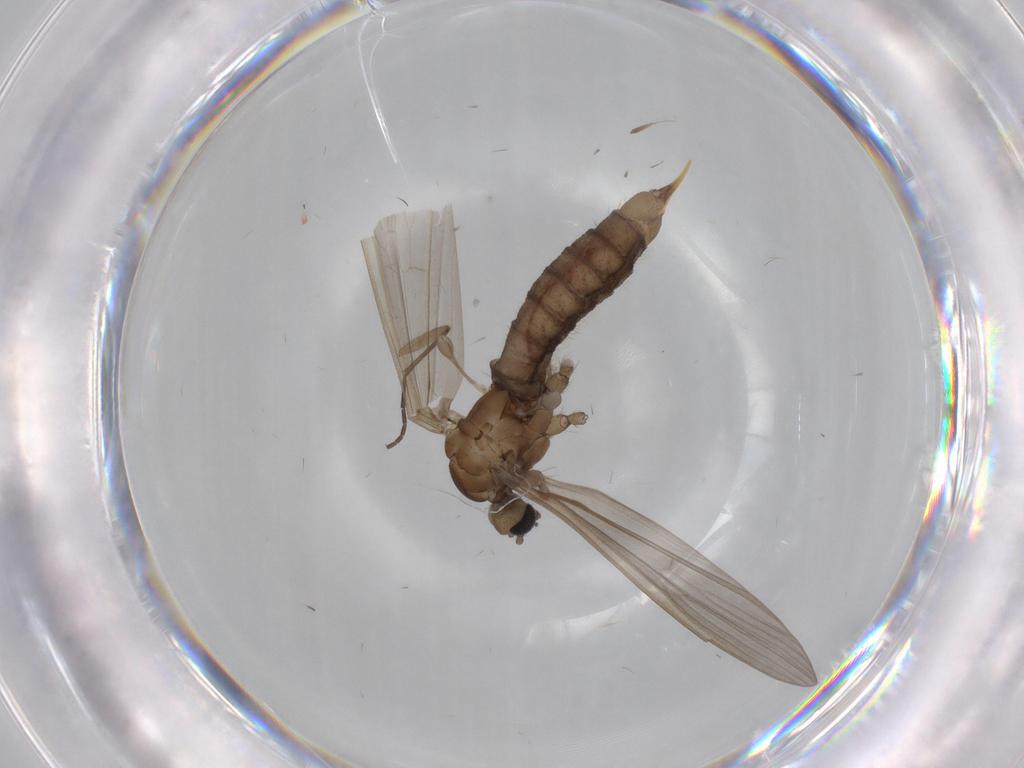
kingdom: Animalia
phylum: Arthropoda
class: Insecta
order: Diptera
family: Limoniidae
